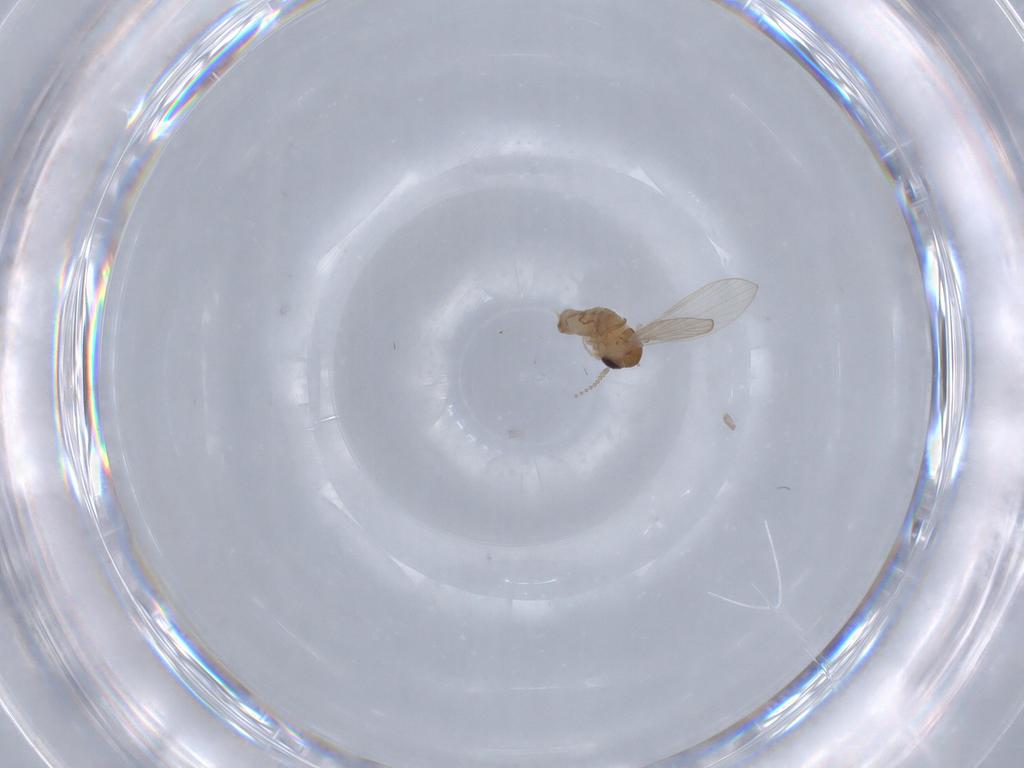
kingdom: Animalia
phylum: Arthropoda
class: Insecta
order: Diptera
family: Psychodidae
